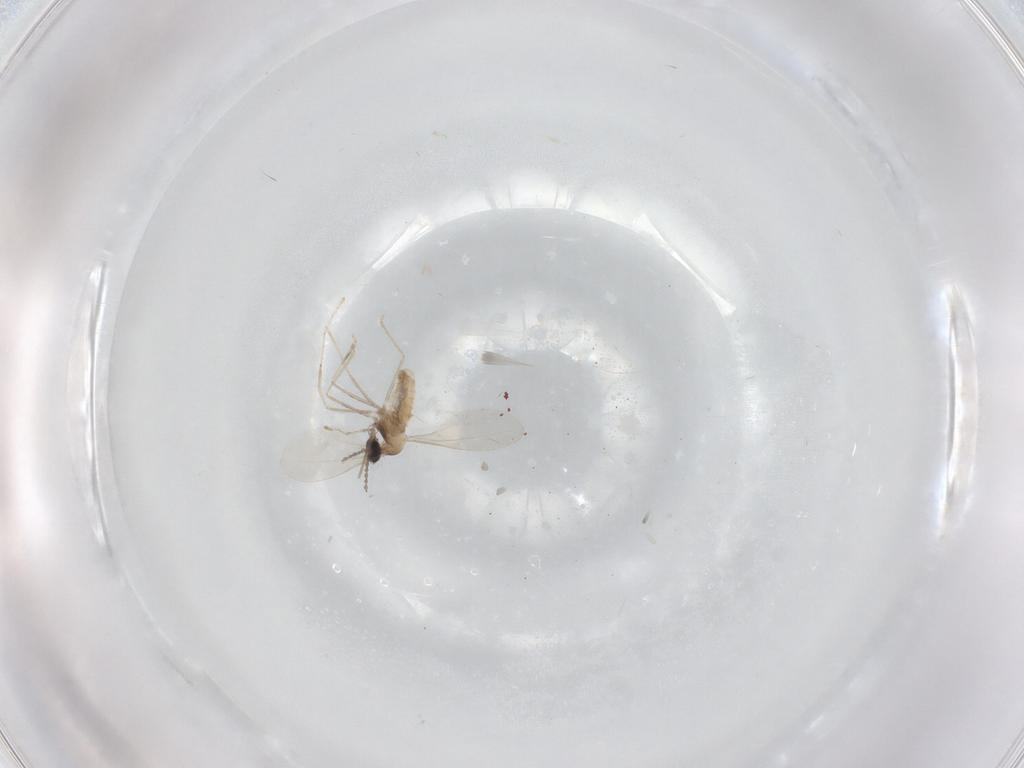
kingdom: Animalia
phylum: Arthropoda
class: Insecta
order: Diptera
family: Cecidomyiidae
